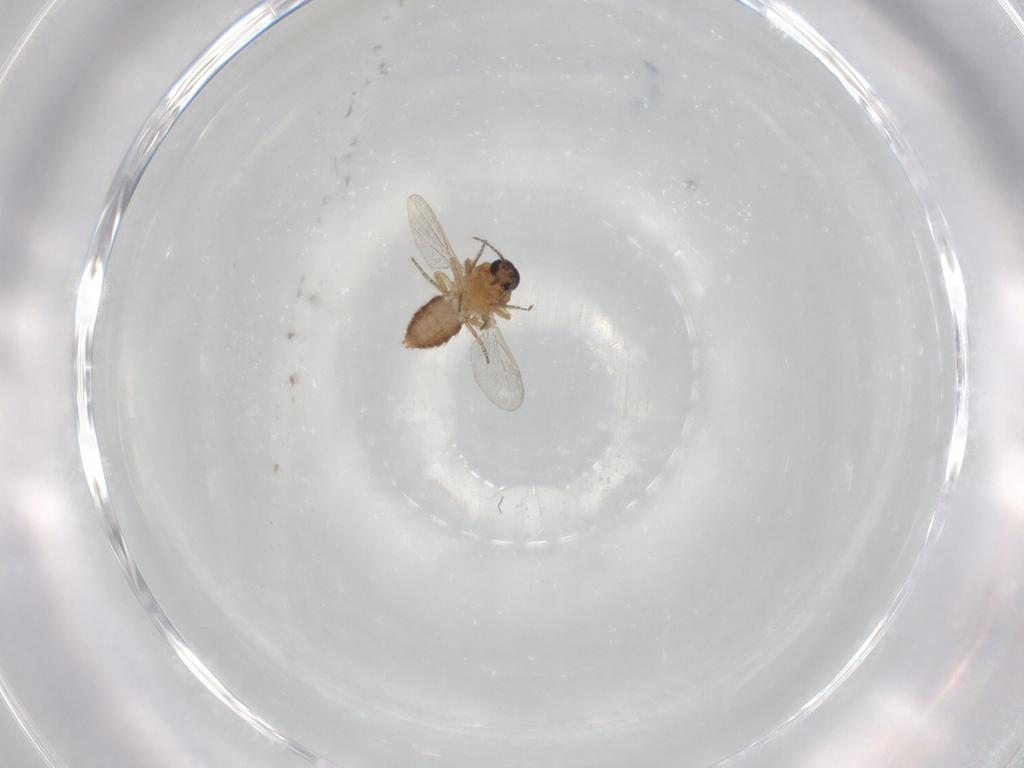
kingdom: Animalia
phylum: Arthropoda
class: Insecta
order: Diptera
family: Ceratopogonidae
